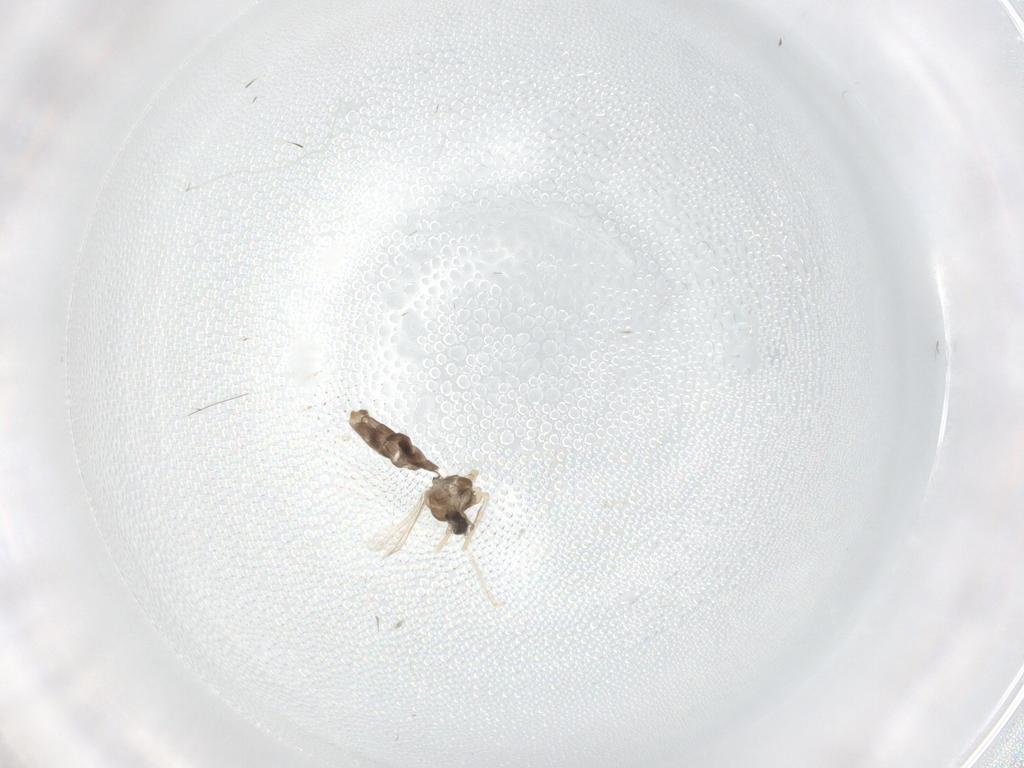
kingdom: Animalia
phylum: Arthropoda
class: Insecta
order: Diptera
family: Cecidomyiidae
